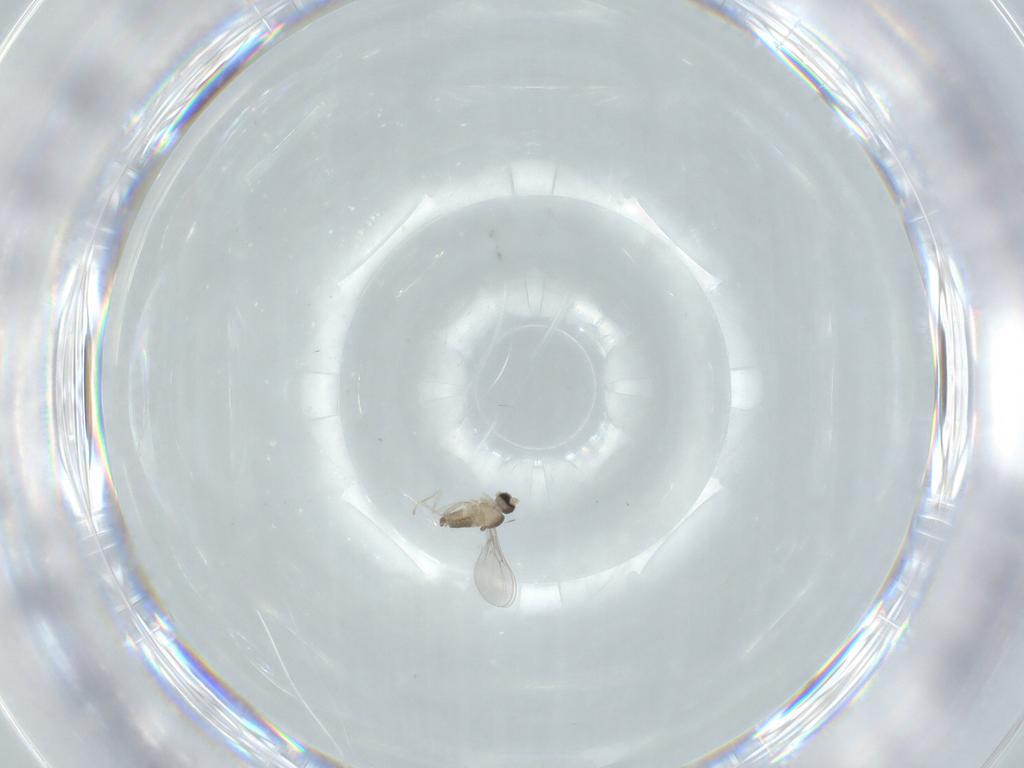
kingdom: Animalia
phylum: Arthropoda
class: Insecta
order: Diptera
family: Cecidomyiidae
